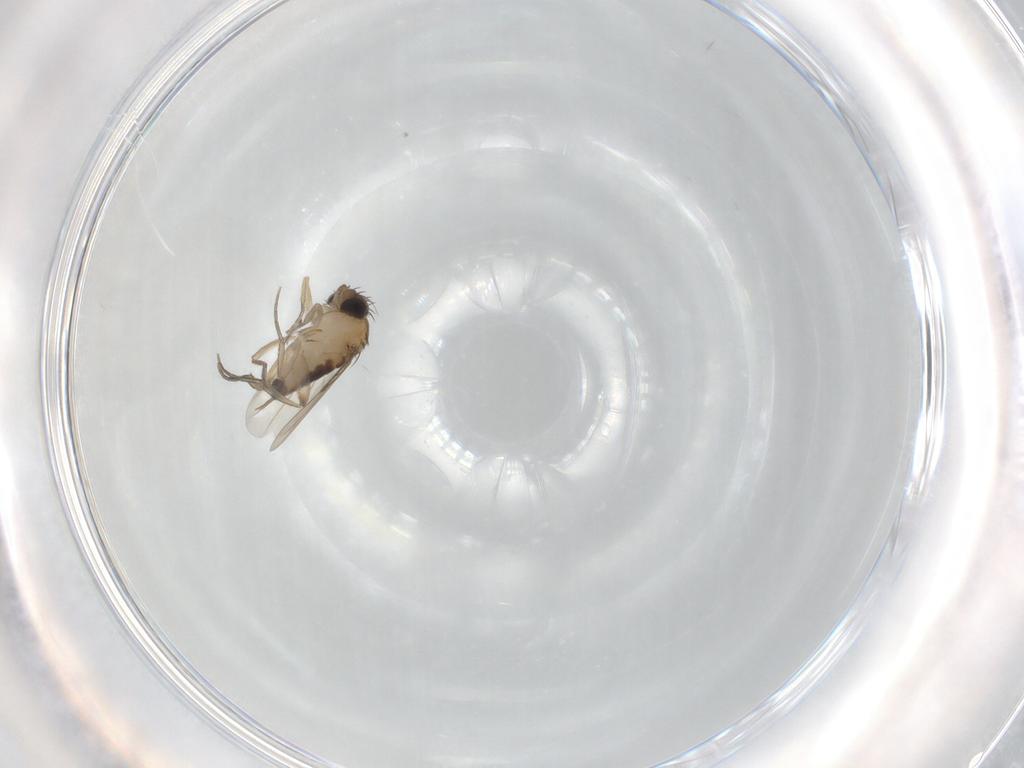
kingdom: Animalia
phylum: Arthropoda
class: Insecta
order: Diptera
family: Phoridae
